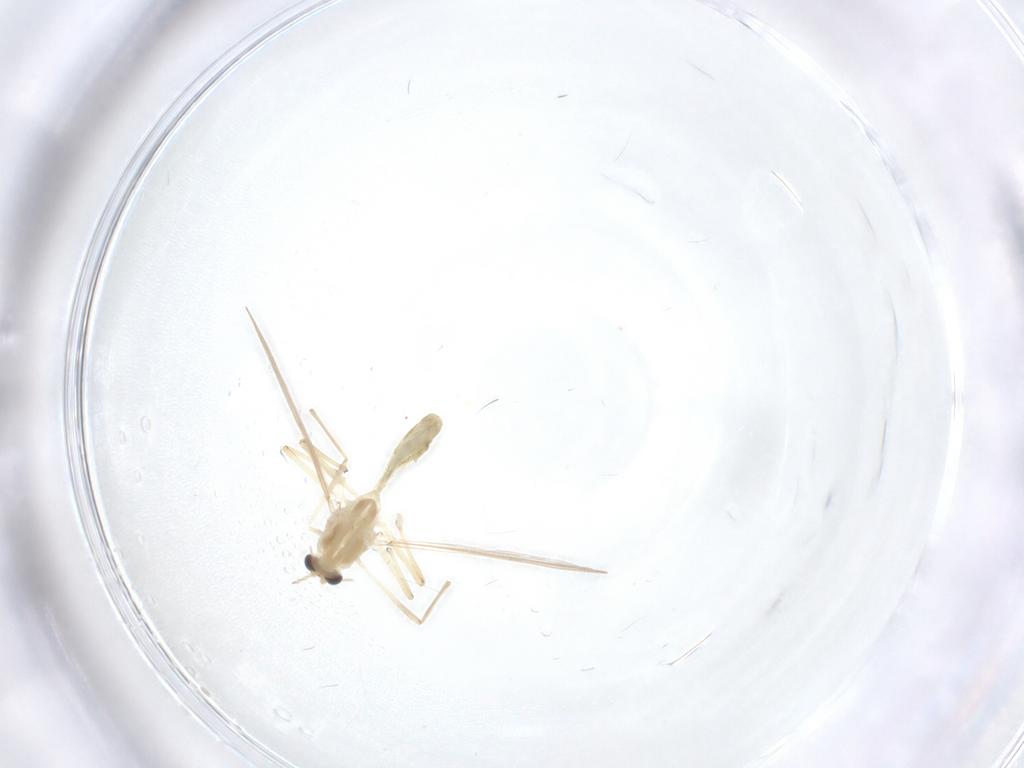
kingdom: Animalia
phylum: Arthropoda
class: Insecta
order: Diptera
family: Chironomidae
